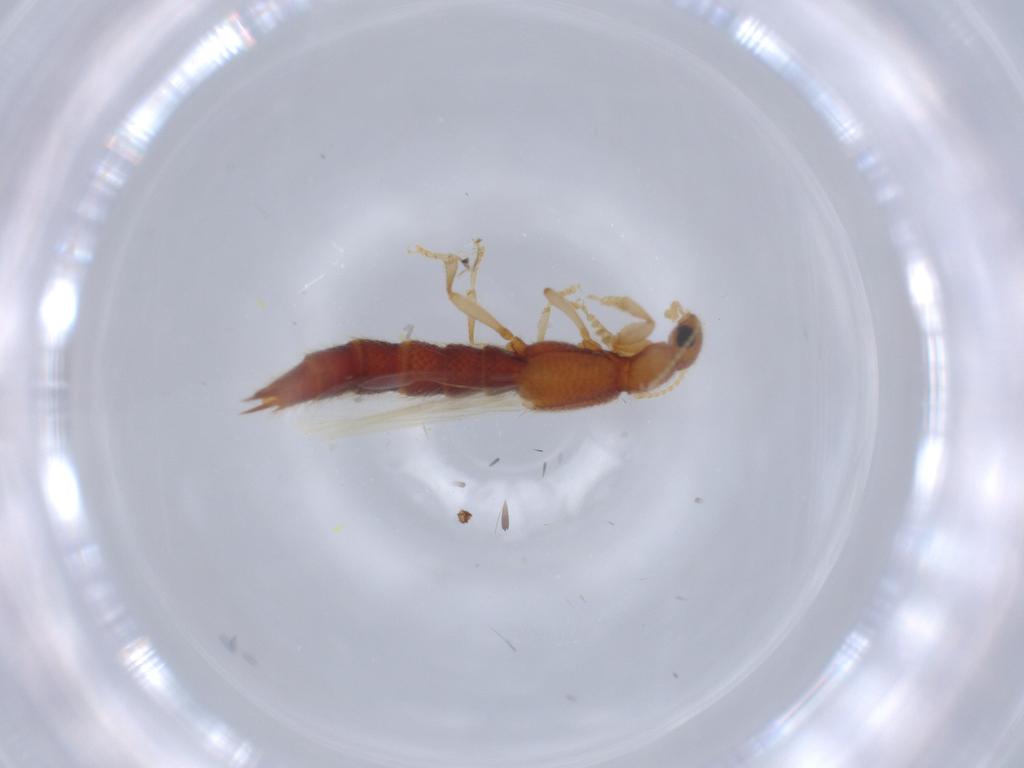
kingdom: Animalia
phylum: Arthropoda
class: Insecta
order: Coleoptera
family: Staphylinidae
